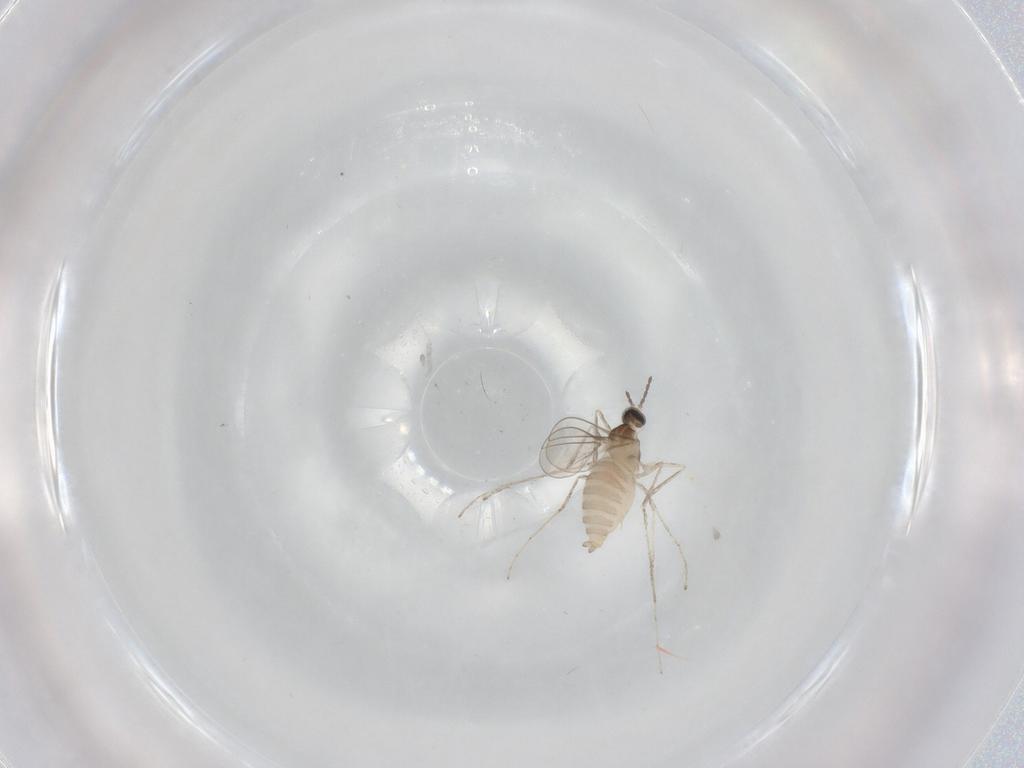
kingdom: Animalia
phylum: Arthropoda
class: Insecta
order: Diptera
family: Cecidomyiidae
